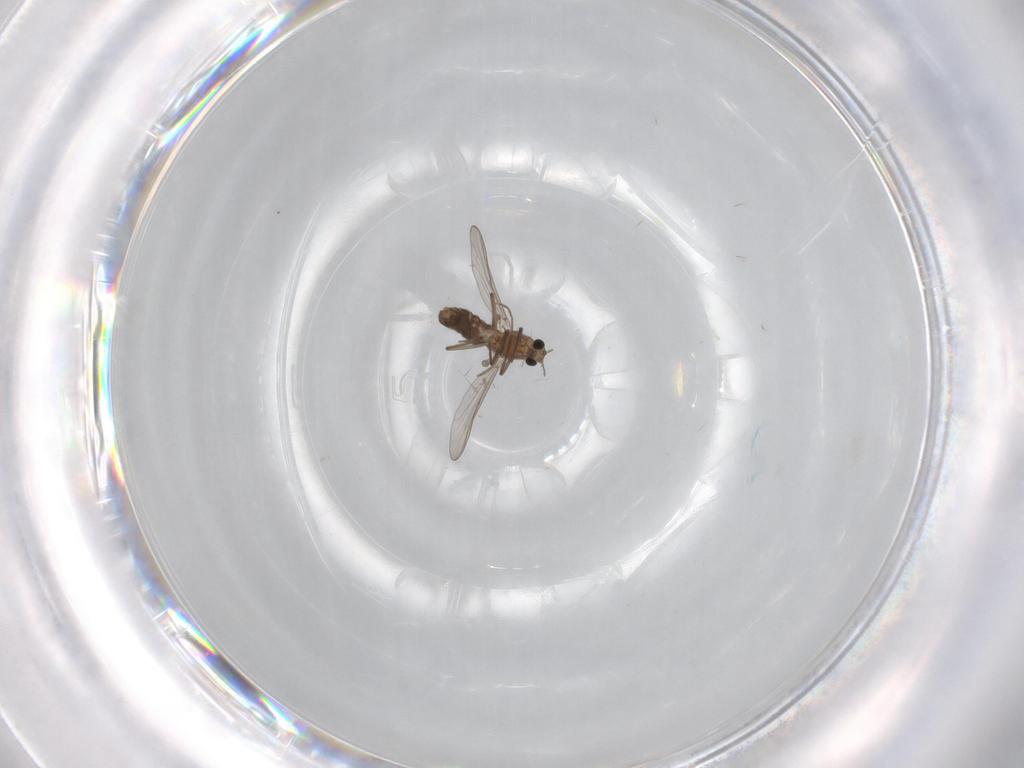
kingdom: Animalia
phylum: Arthropoda
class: Insecta
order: Diptera
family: Chironomidae
